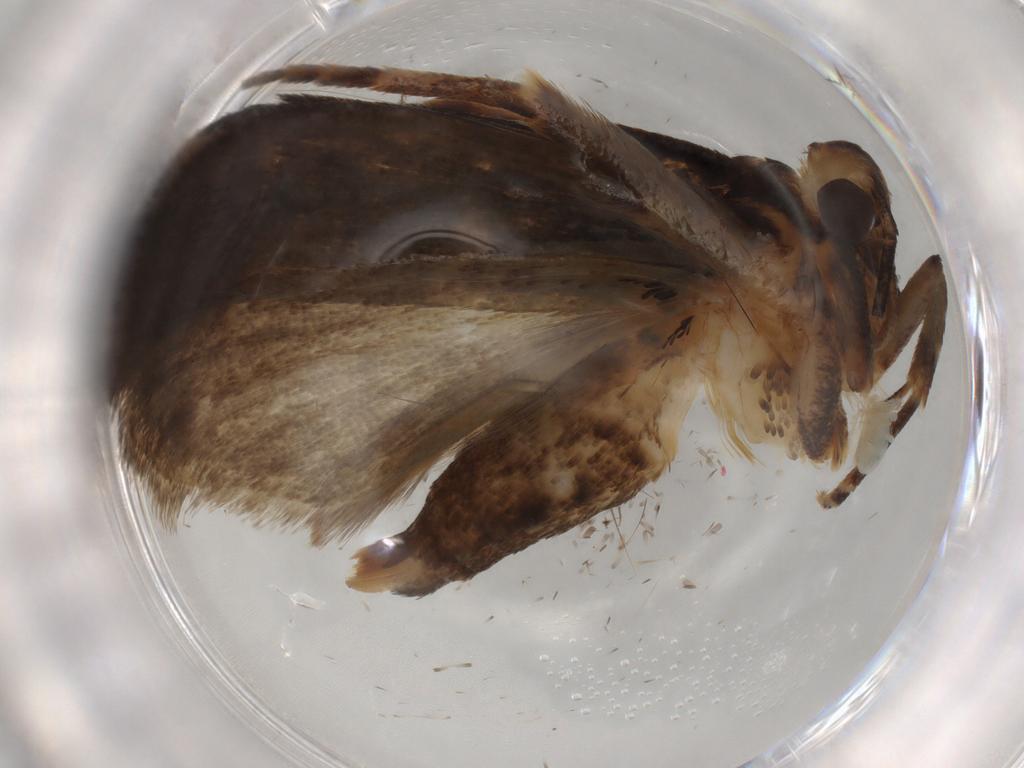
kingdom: Animalia
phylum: Arthropoda
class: Insecta
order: Lepidoptera
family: Gelechiidae
